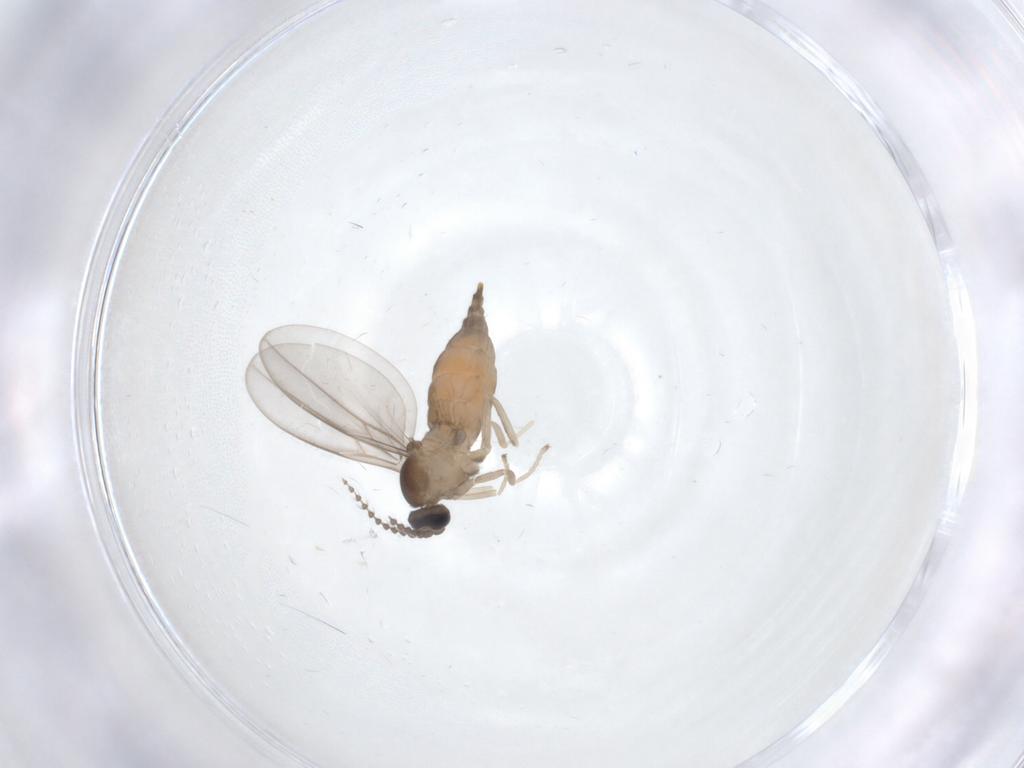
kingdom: Animalia
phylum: Arthropoda
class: Insecta
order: Diptera
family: Cecidomyiidae
